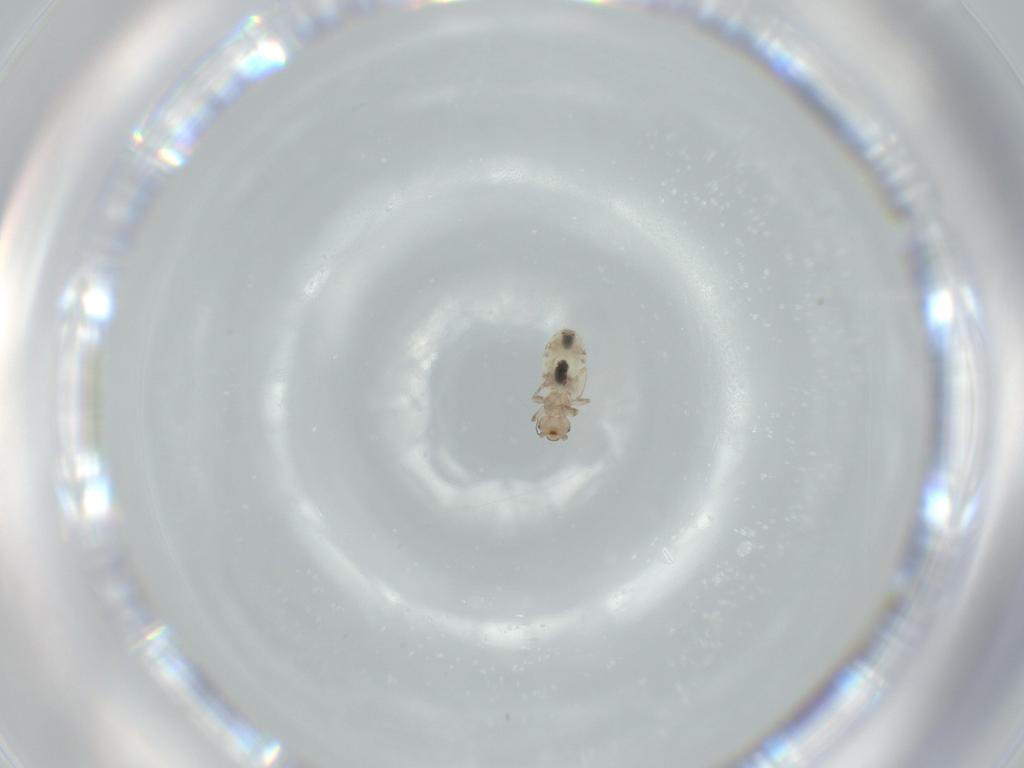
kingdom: Animalia
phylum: Arthropoda
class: Insecta
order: Psocodea
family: Liposcelididae
